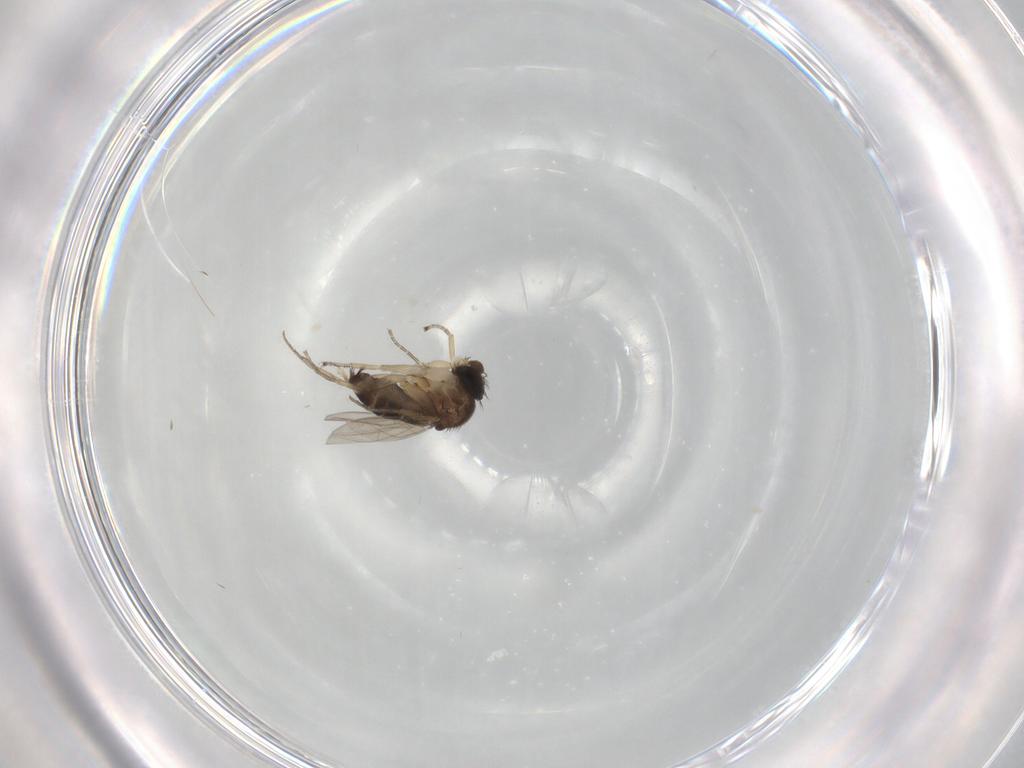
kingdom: Animalia
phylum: Arthropoda
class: Insecta
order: Diptera
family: Phoridae
